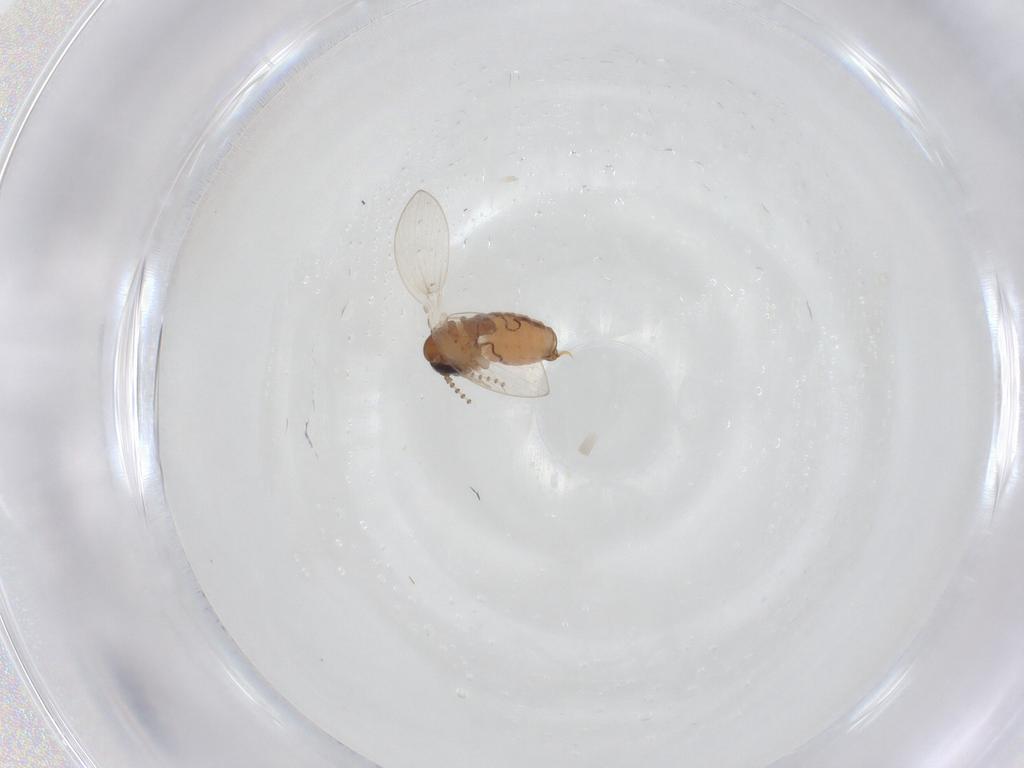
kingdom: Animalia
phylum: Arthropoda
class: Insecta
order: Diptera
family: Psychodidae
